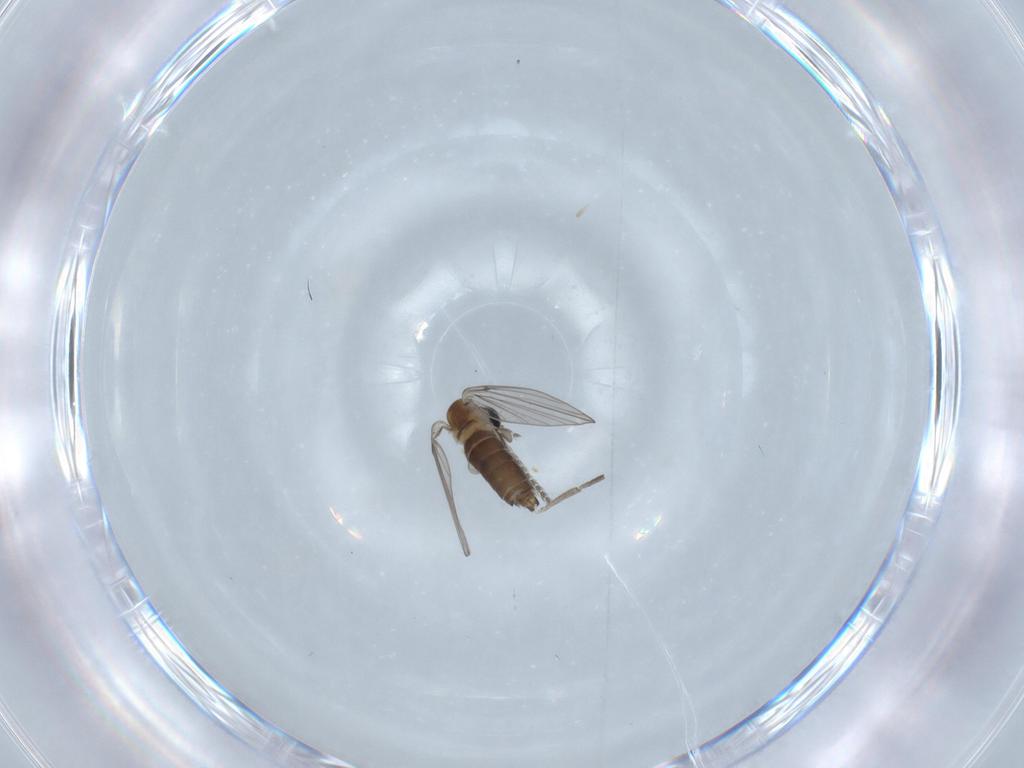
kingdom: Animalia
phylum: Arthropoda
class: Insecta
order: Diptera
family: Psychodidae
